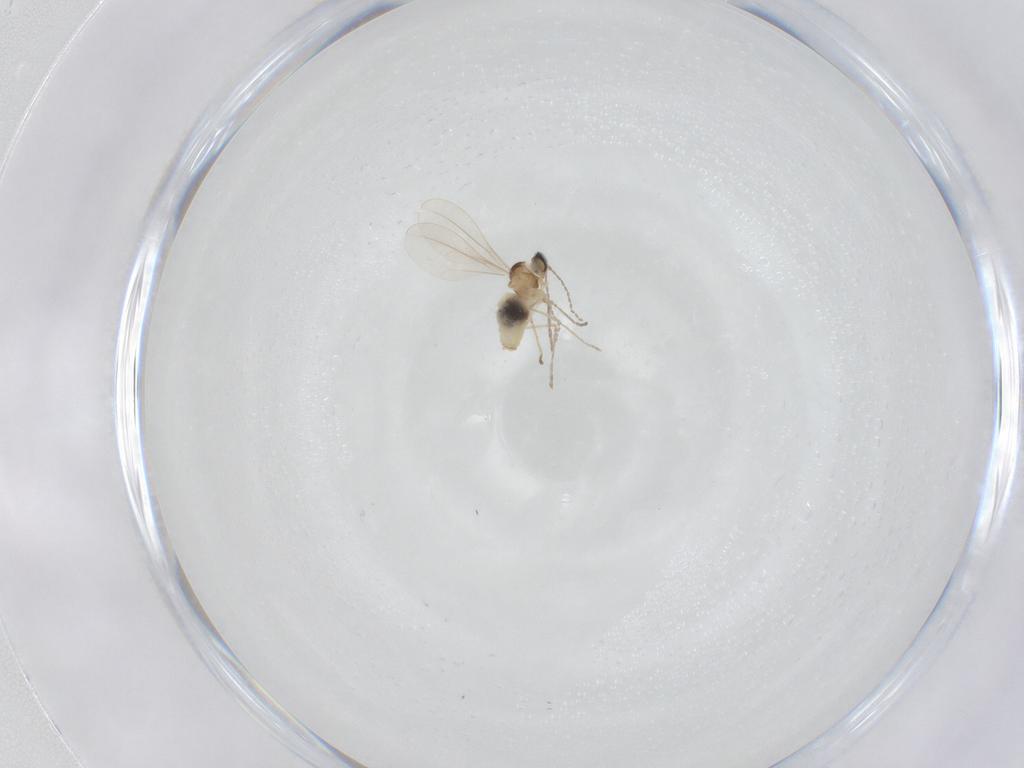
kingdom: Animalia
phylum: Arthropoda
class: Insecta
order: Diptera
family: Cecidomyiidae
